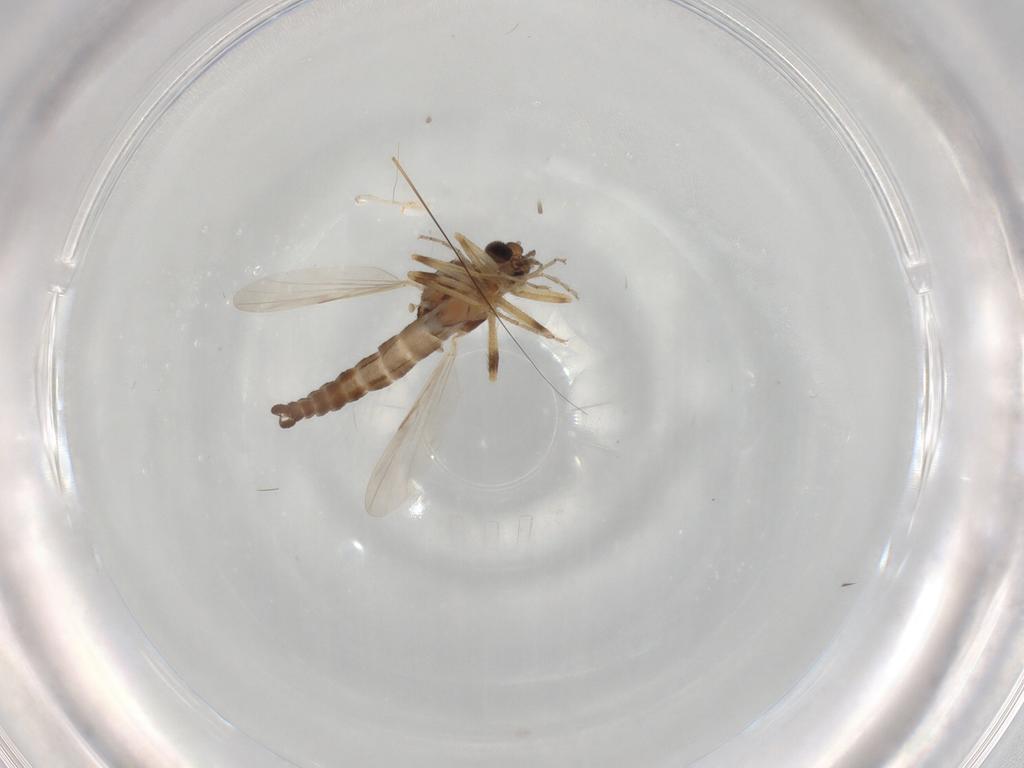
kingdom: Animalia
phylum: Arthropoda
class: Insecta
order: Diptera
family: Ceratopogonidae
